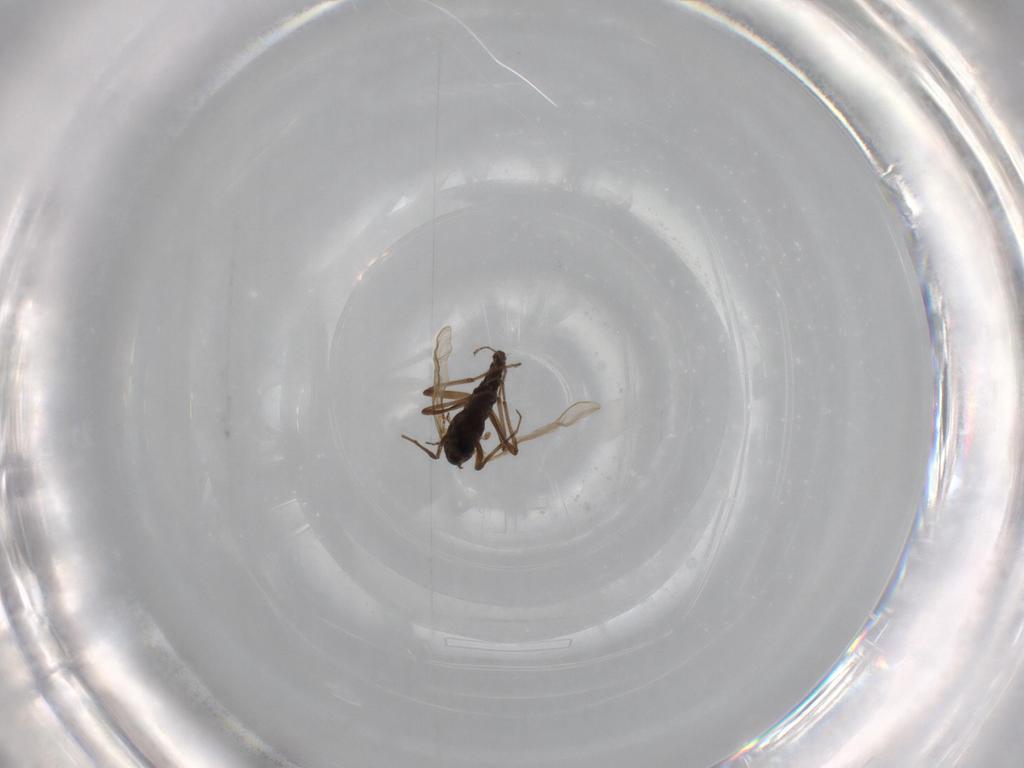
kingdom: Animalia
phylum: Arthropoda
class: Insecta
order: Diptera
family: Chironomidae
